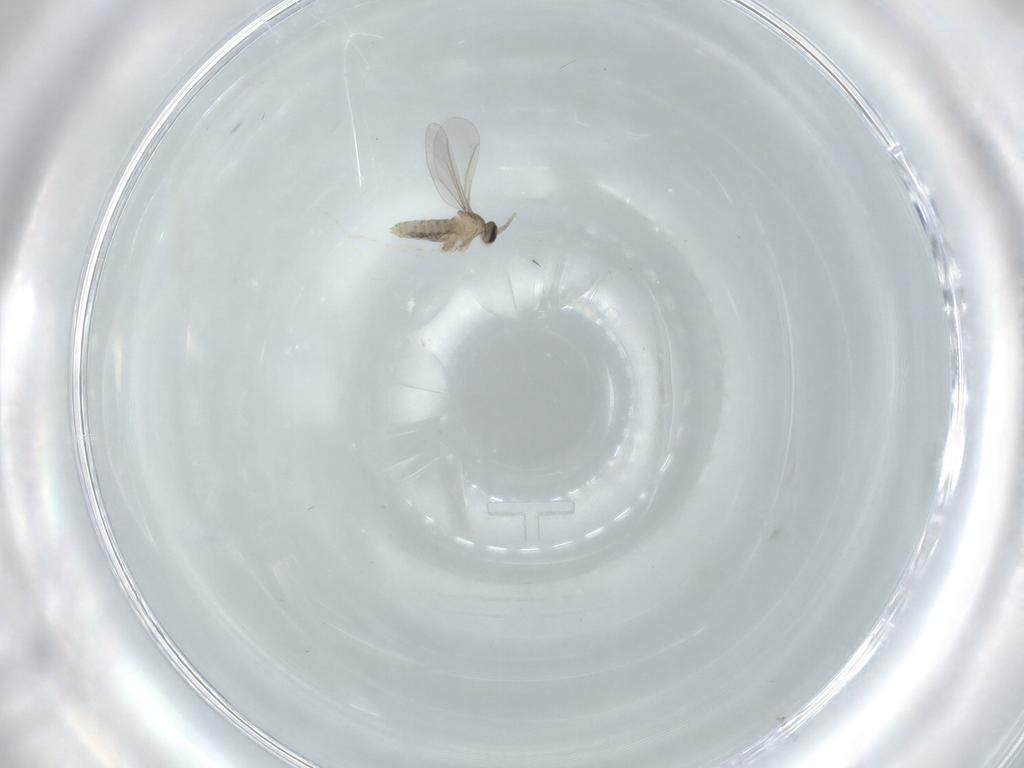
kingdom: Animalia
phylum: Arthropoda
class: Insecta
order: Diptera
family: Cecidomyiidae
